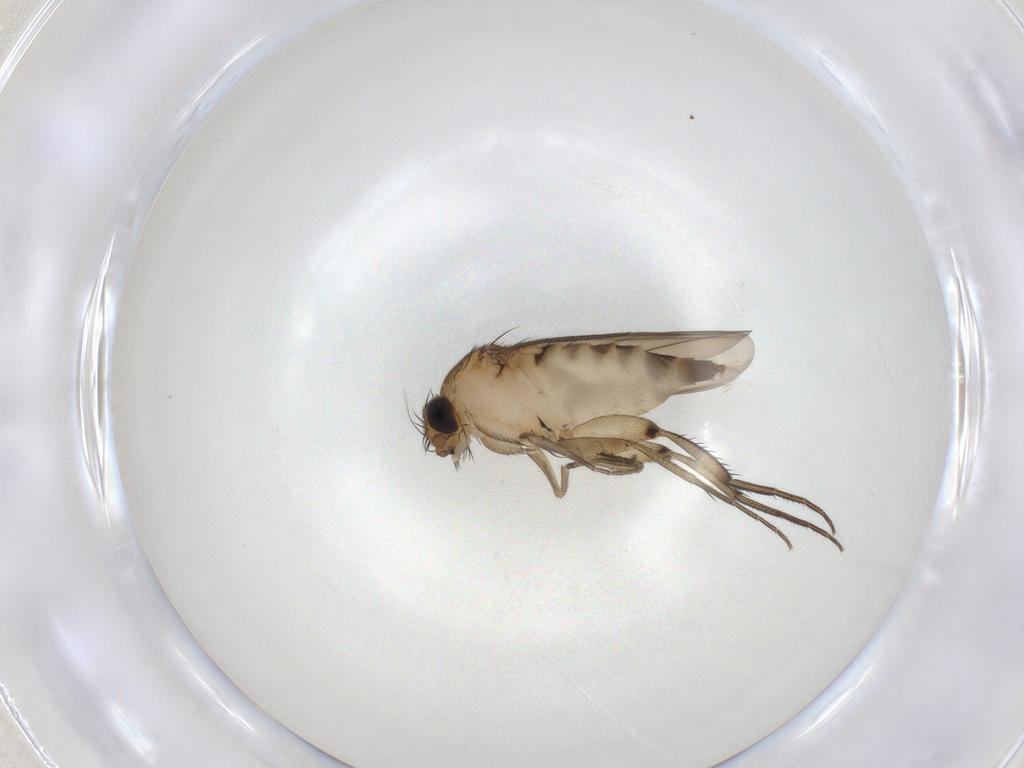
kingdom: Animalia
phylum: Arthropoda
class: Insecta
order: Diptera
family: Phoridae
